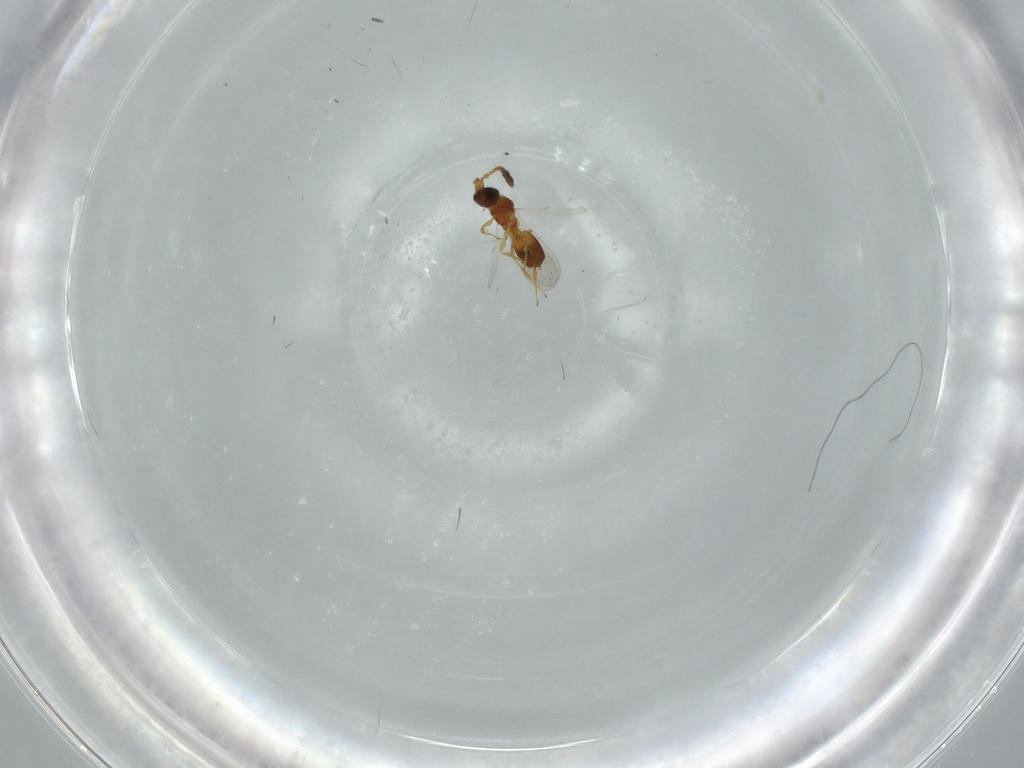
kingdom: Animalia
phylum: Arthropoda
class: Insecta
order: Hymenoptera
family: Diapriidae
